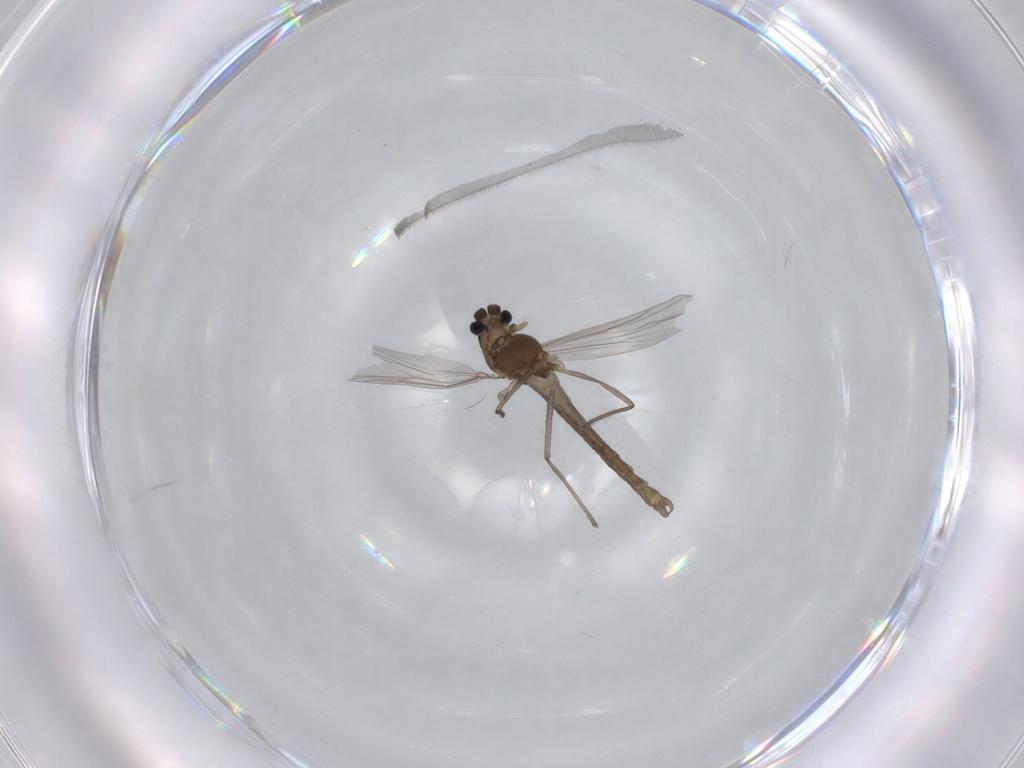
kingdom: Animalia
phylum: Arthropoda
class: Insecta
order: Diptera
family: Chironomidae
